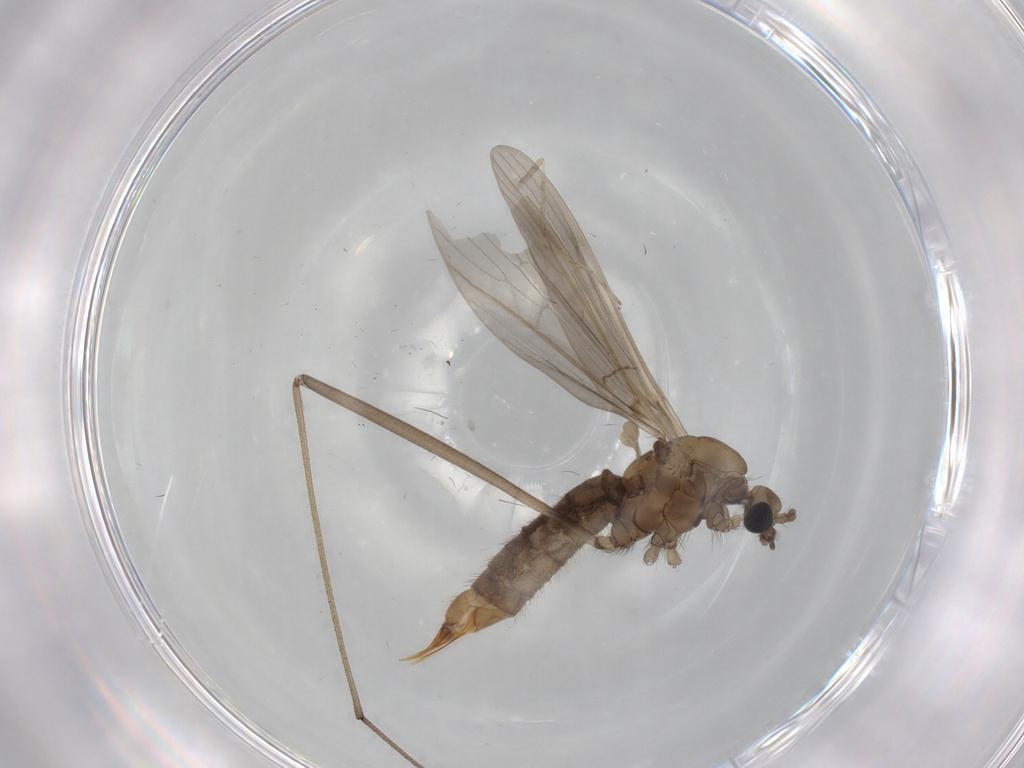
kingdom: Animalia
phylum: Arthropoda
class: Insecta
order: Diptera
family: Limoniidae
